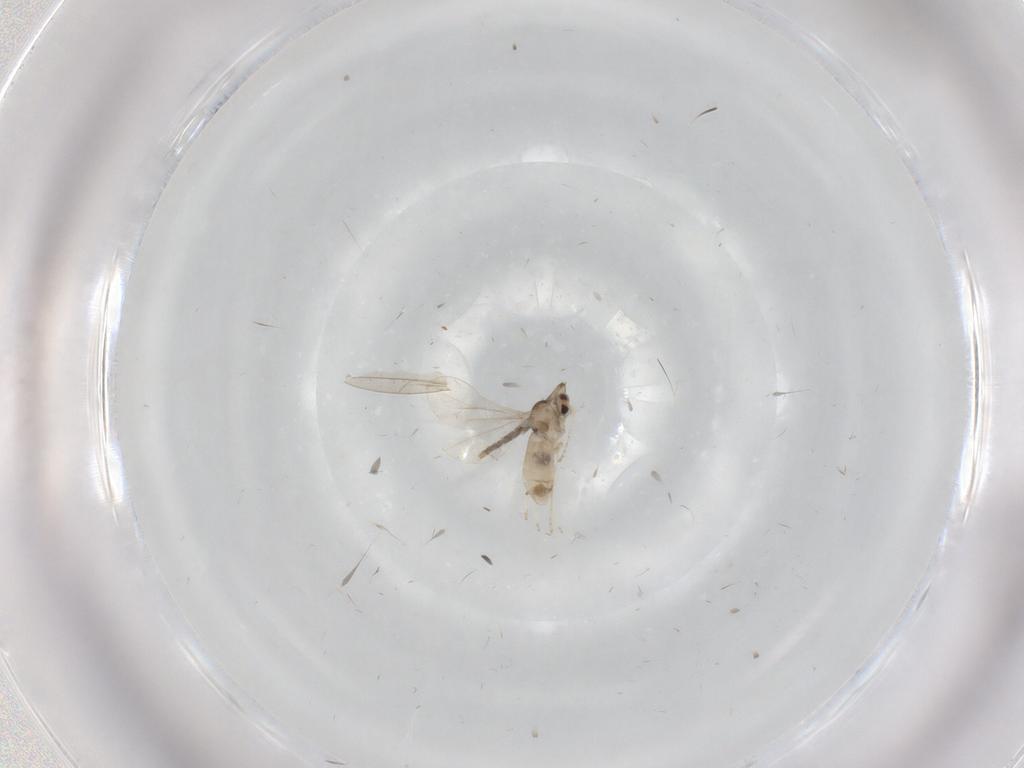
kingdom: Animalia
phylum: Arthropoda
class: Insecta
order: Diptera
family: Cecidomyiidae
